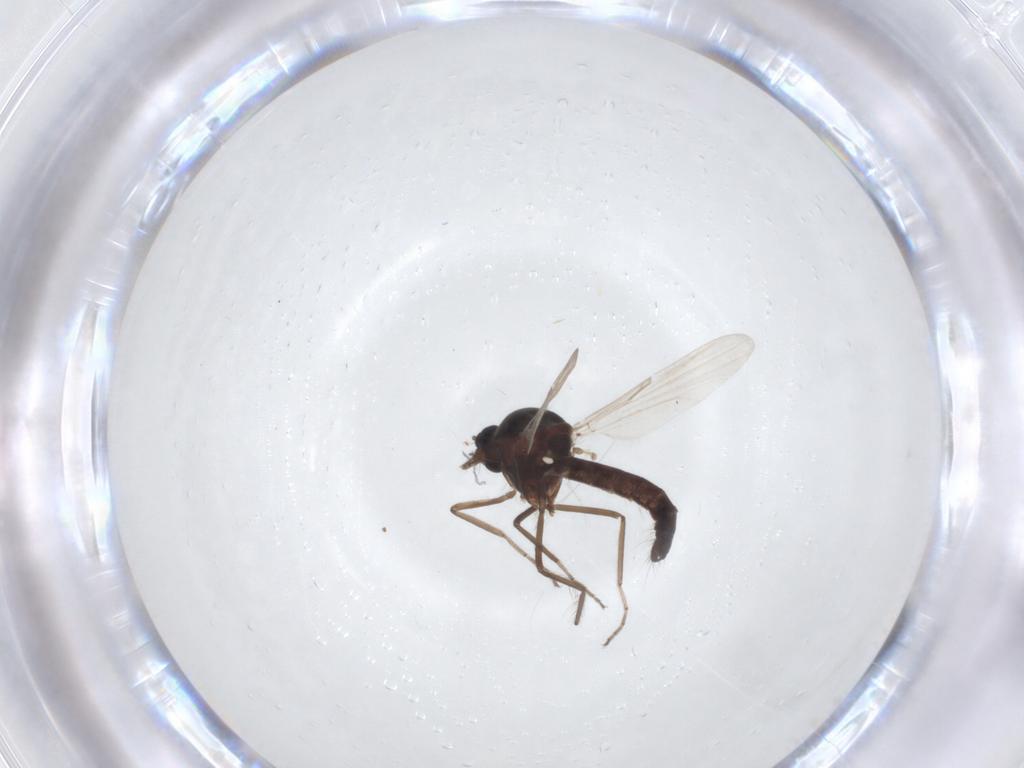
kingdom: Animalia
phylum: Arthropoda
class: Insecta
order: Diptera
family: Ceratopogonidae
